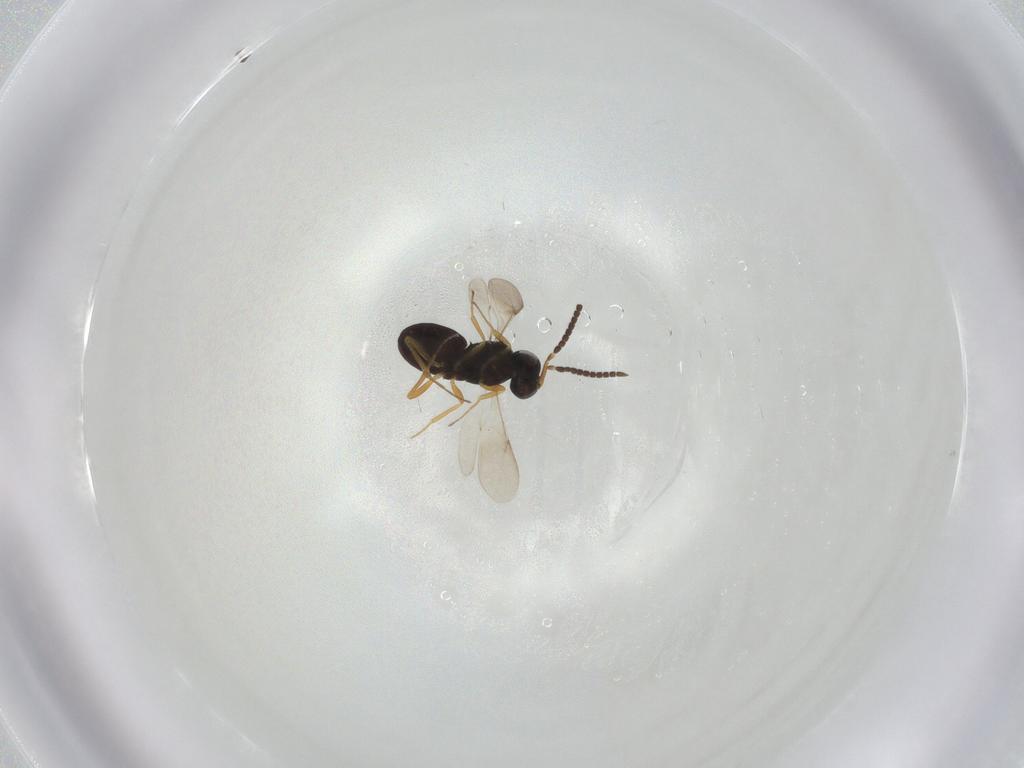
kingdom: Animalia
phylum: Arthropoda
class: Insecta
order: Hymenoptera
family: Scelionidae
